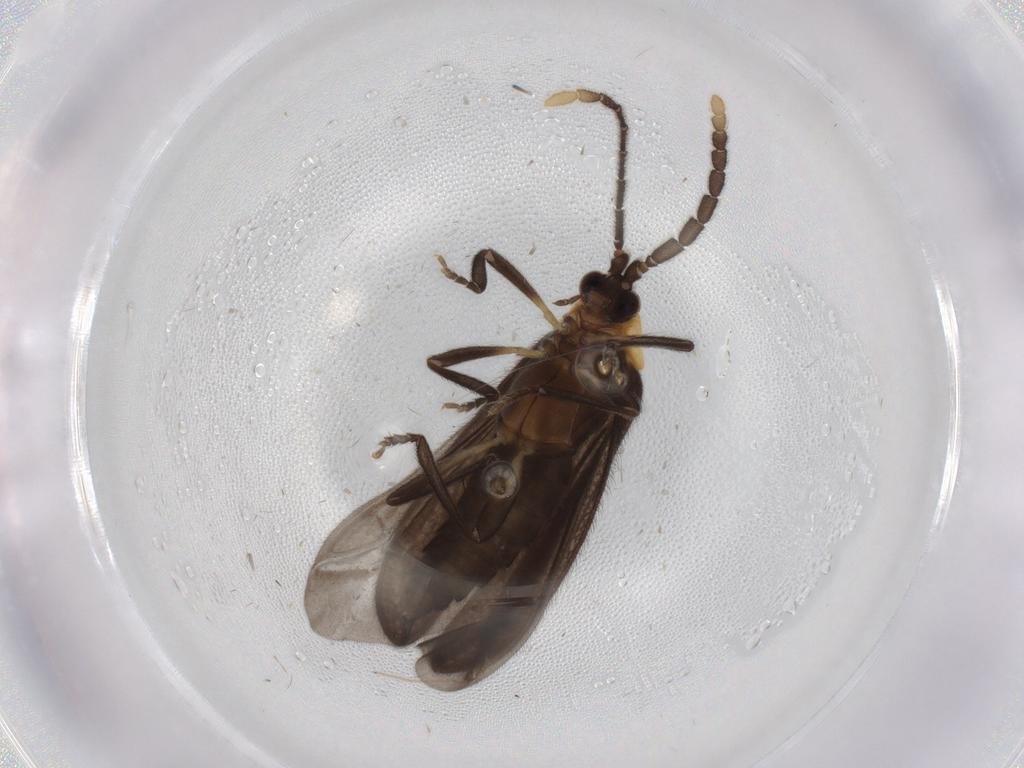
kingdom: Animalia
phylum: Arthropoda
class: Insecta
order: Coleoptera
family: Lycidae
